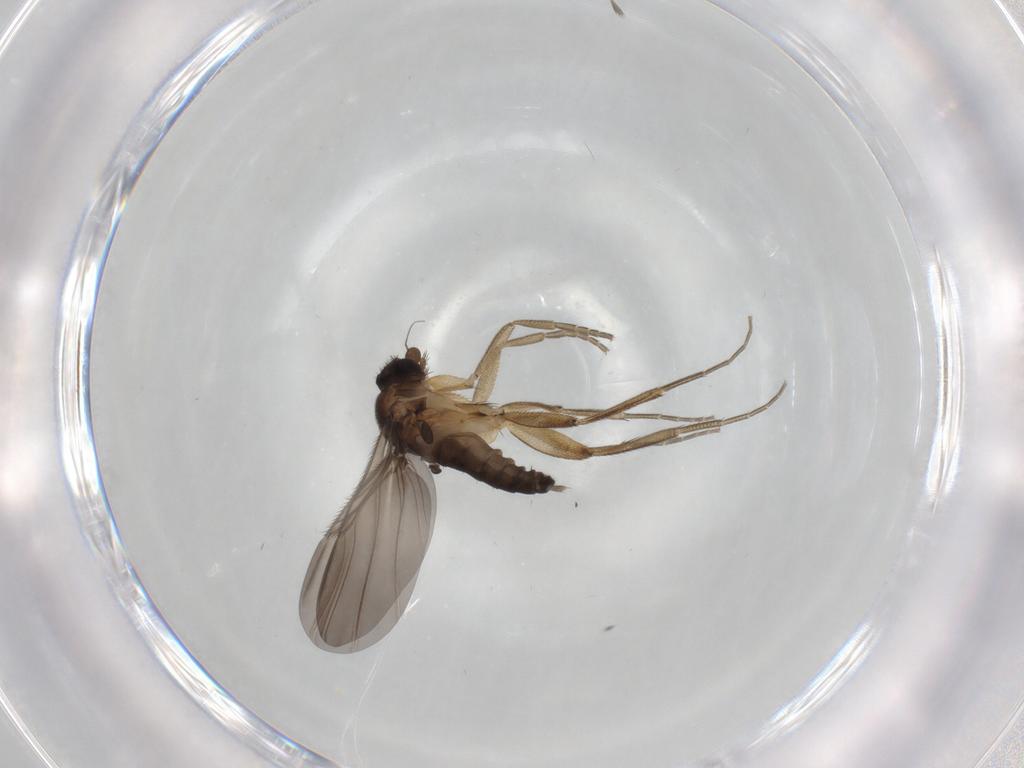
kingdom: Animalia
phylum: Arthropoda
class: Insecta
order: Diptera
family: Phoridae
